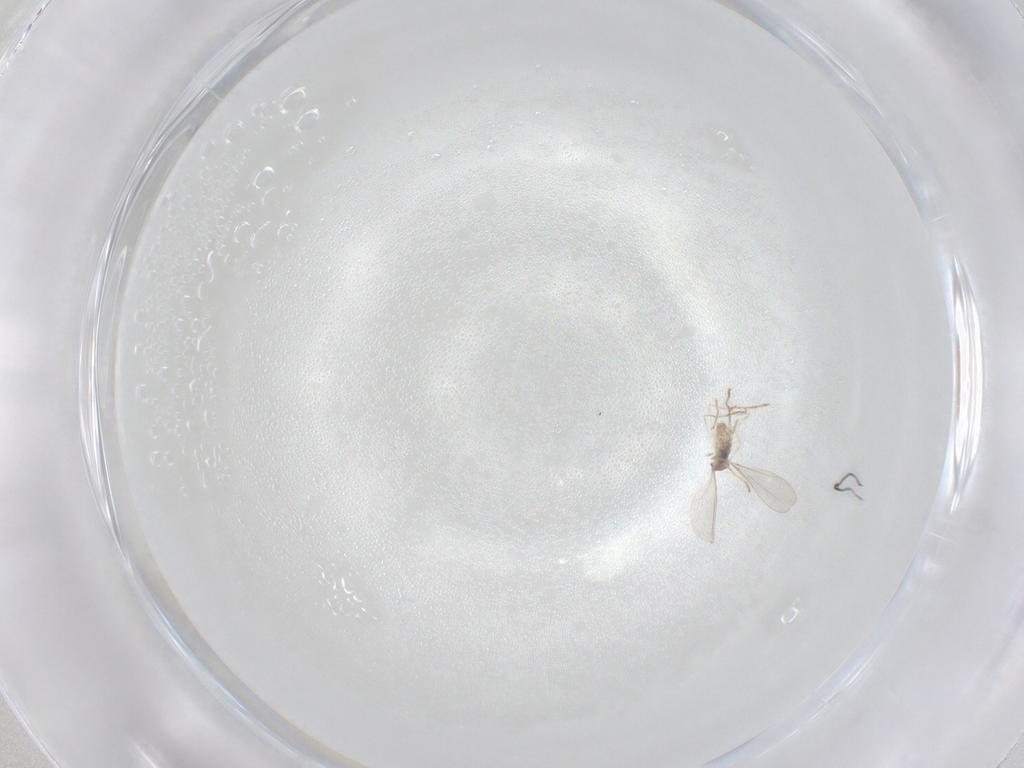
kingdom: Animalia
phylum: Arthropoda
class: Insecta
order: Diptera
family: Cecidomyiidae
